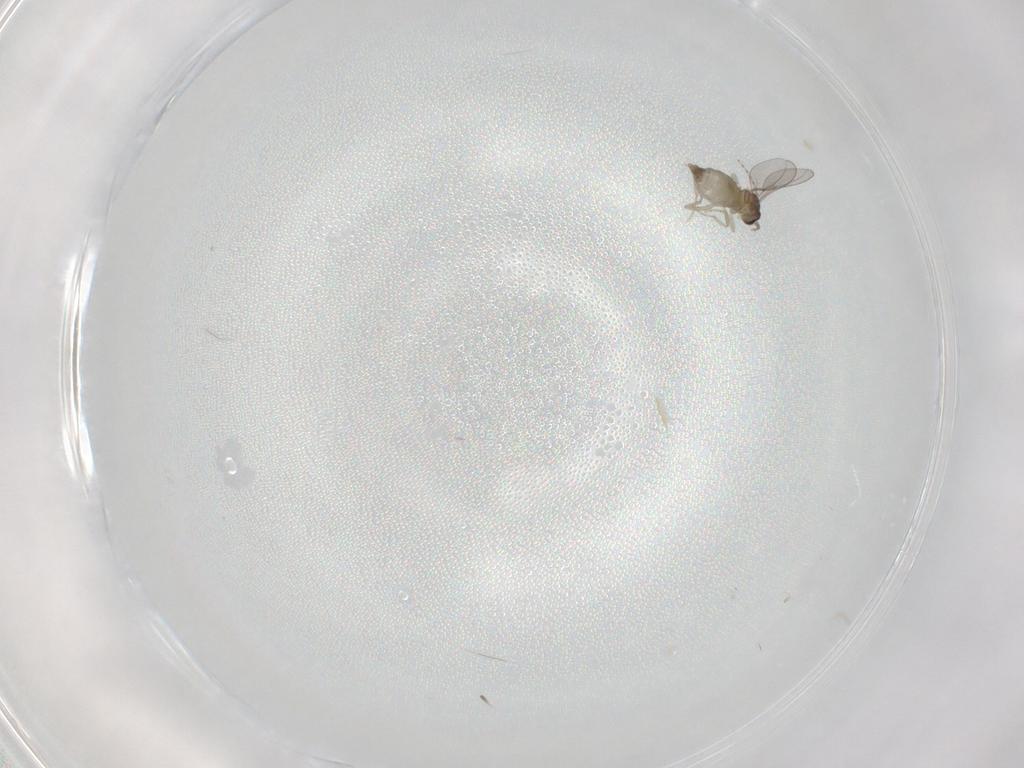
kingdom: Animalia
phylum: Arthropoda
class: Insecta
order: Diptera
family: Cecidomyiidae
